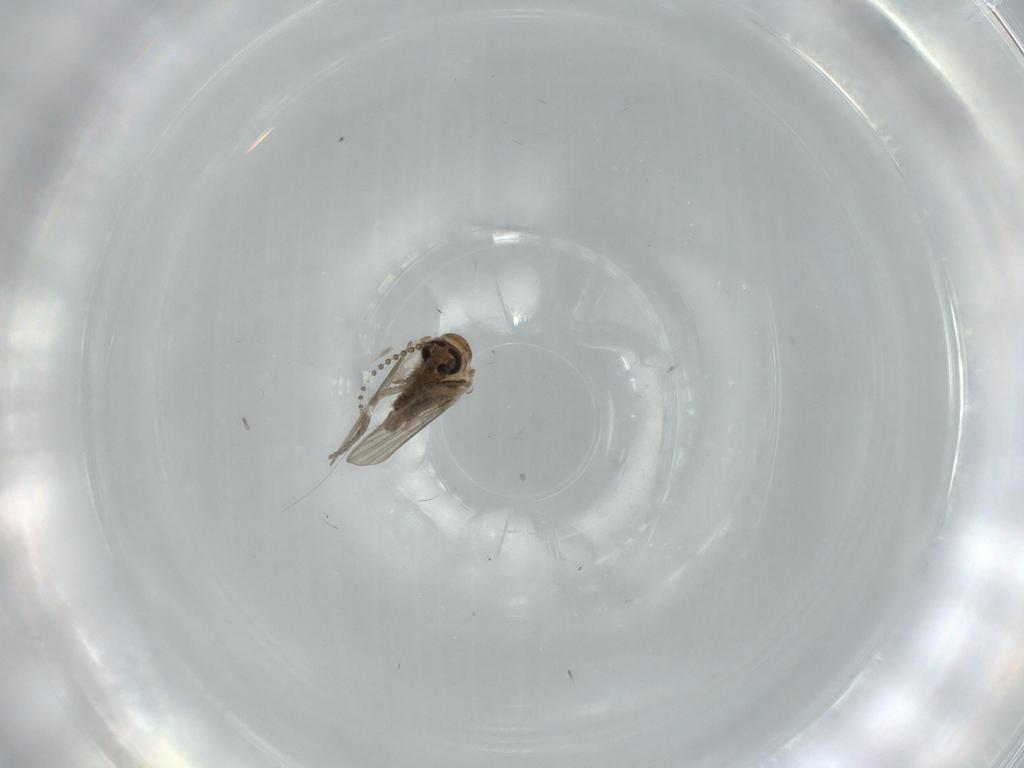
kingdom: Animalia
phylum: Arthropoda
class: Insecta
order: Diptera
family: Psychodidae
